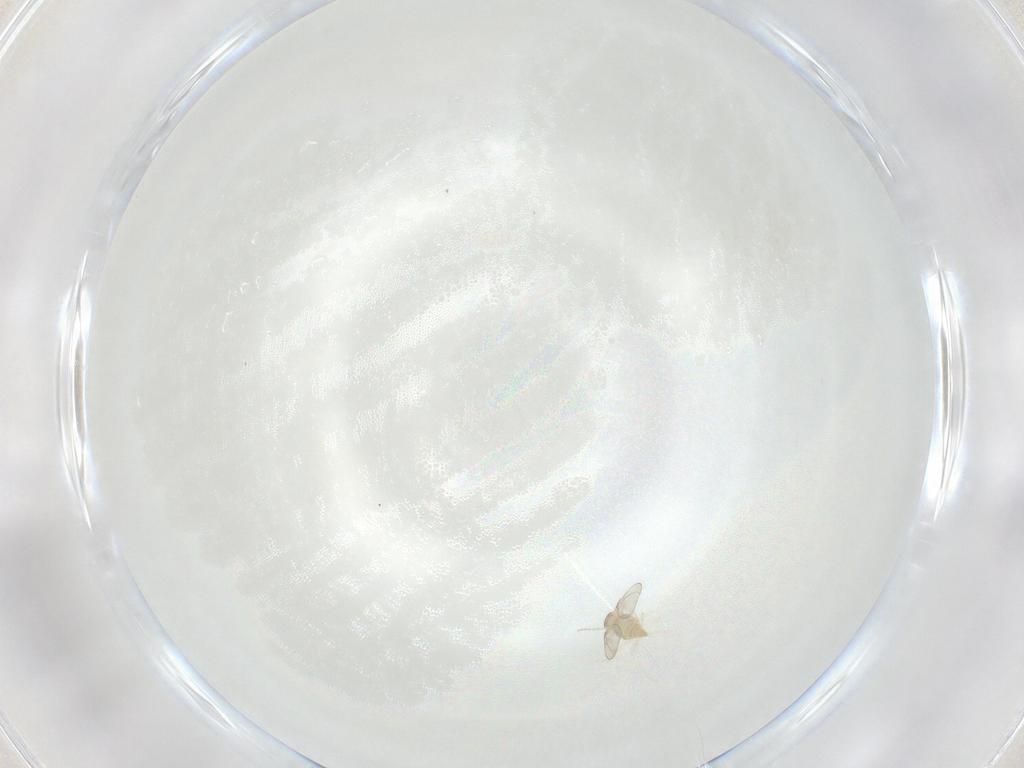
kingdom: Animalia
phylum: Arthropoda
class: Insecta
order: Diptera
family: Cecidomyiidae
